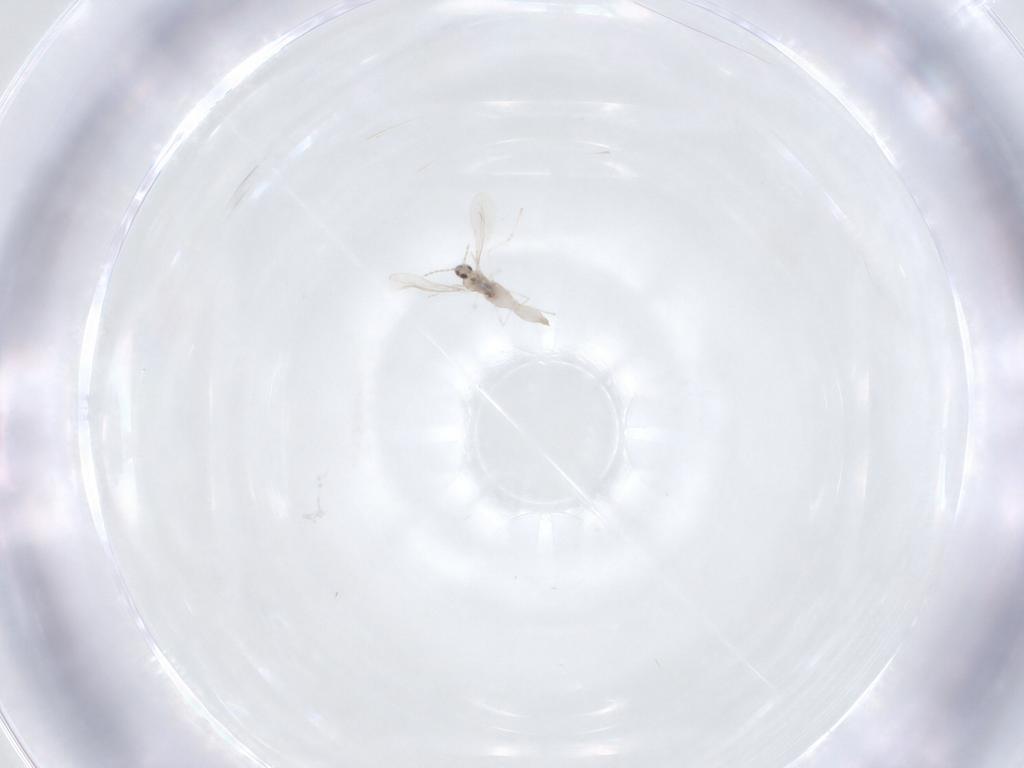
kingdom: Animalia
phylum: Arthropoda
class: Insecta
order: Diptera
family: Cecidomyiidae
